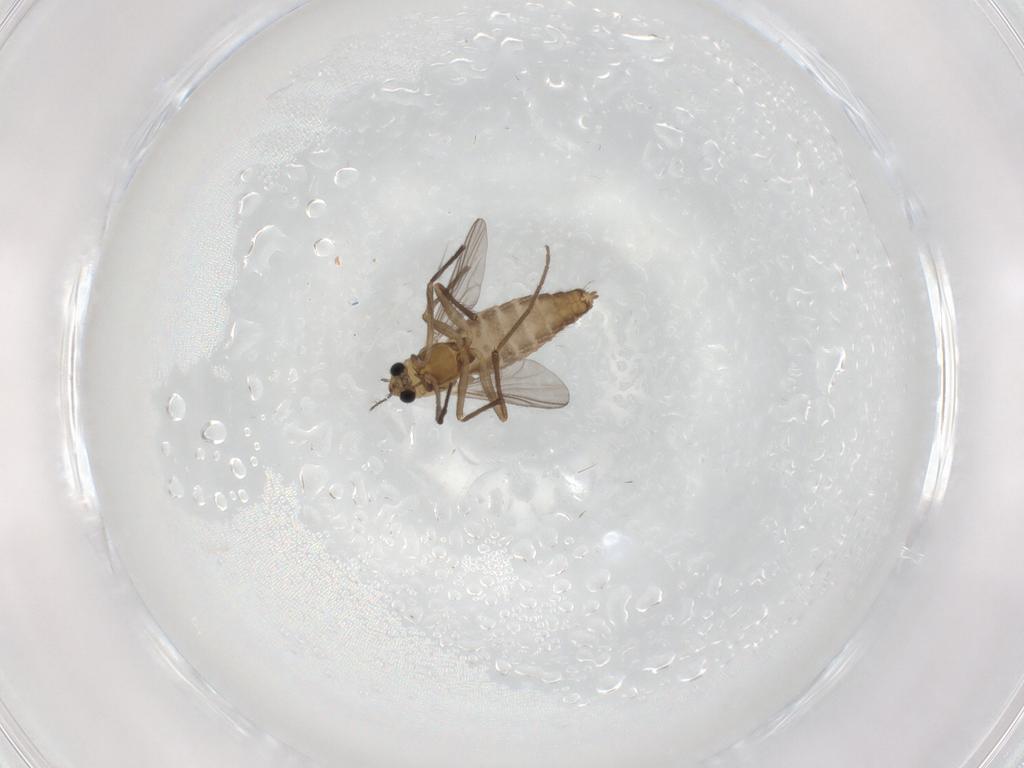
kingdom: Animalia
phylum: Arthropoda
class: Insecta
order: Diptera
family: Chironomidae
